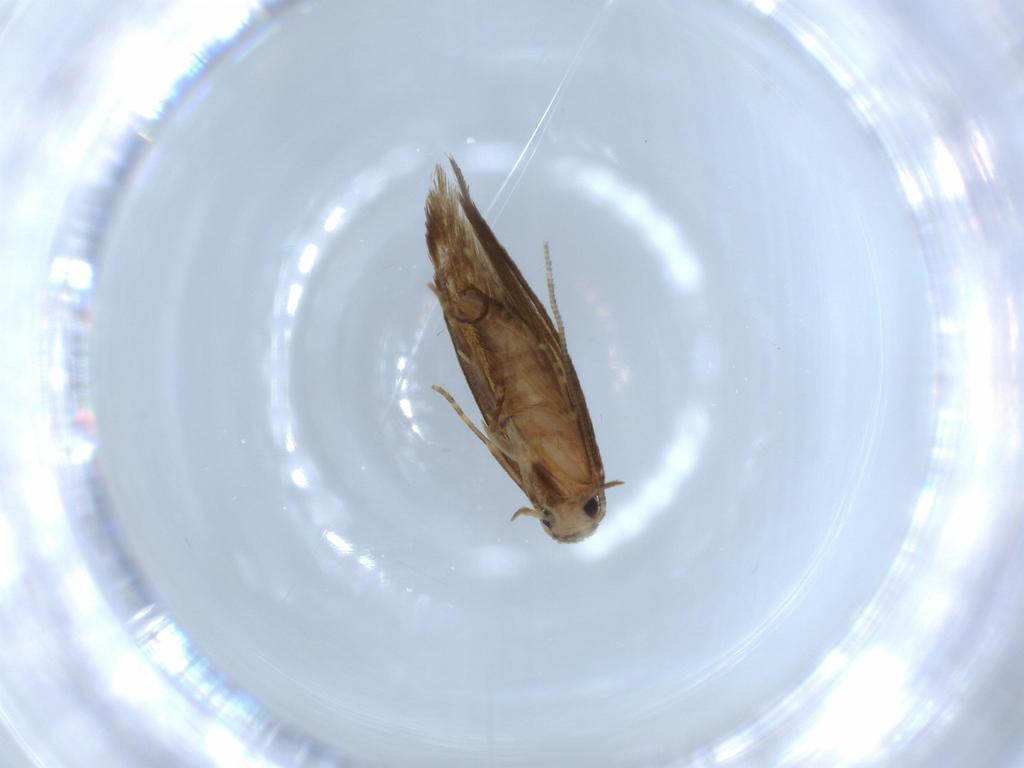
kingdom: Animalia
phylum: Arthropoda
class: Insecta
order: Lepidoptera
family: Tineidae
